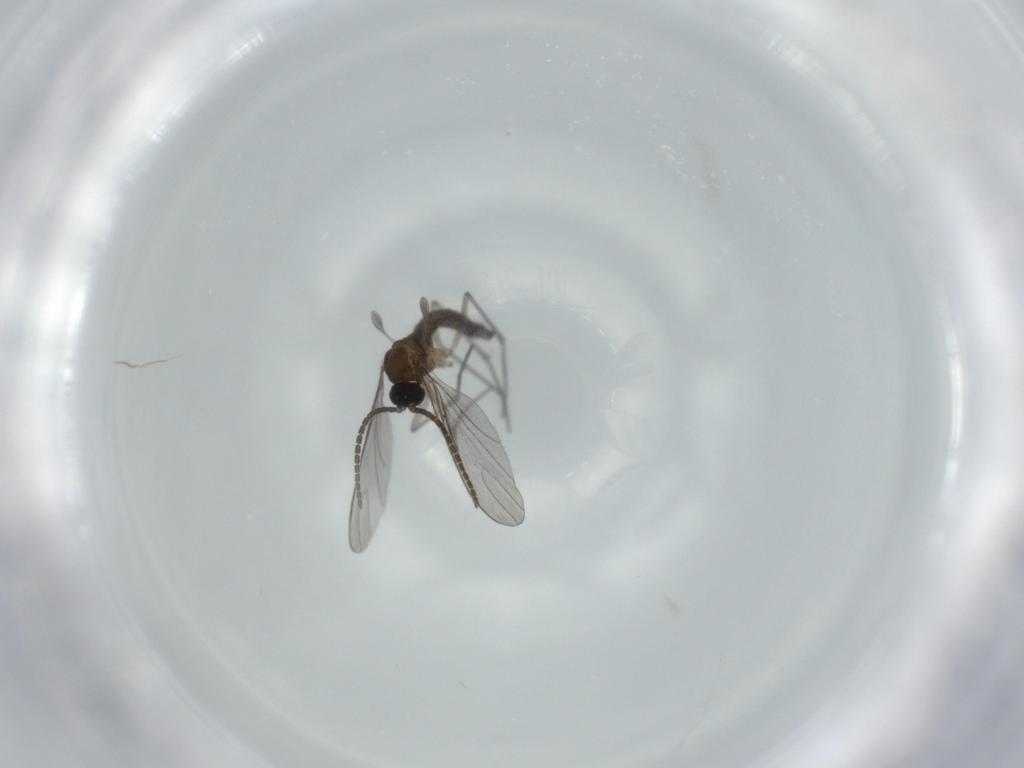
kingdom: Animalia
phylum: Arthropoda
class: Insecta
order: Diptera
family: Sciaridae
